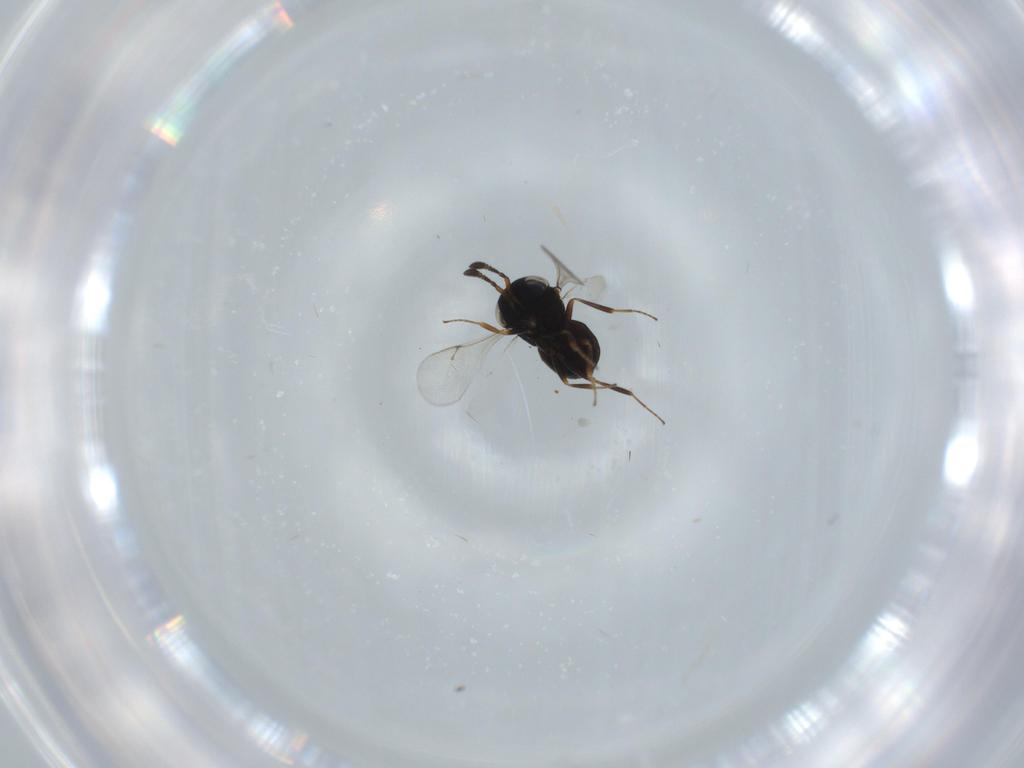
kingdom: Animalia
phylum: Arthropoda
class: Insecta
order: Hymenoptera
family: Scelionidae
